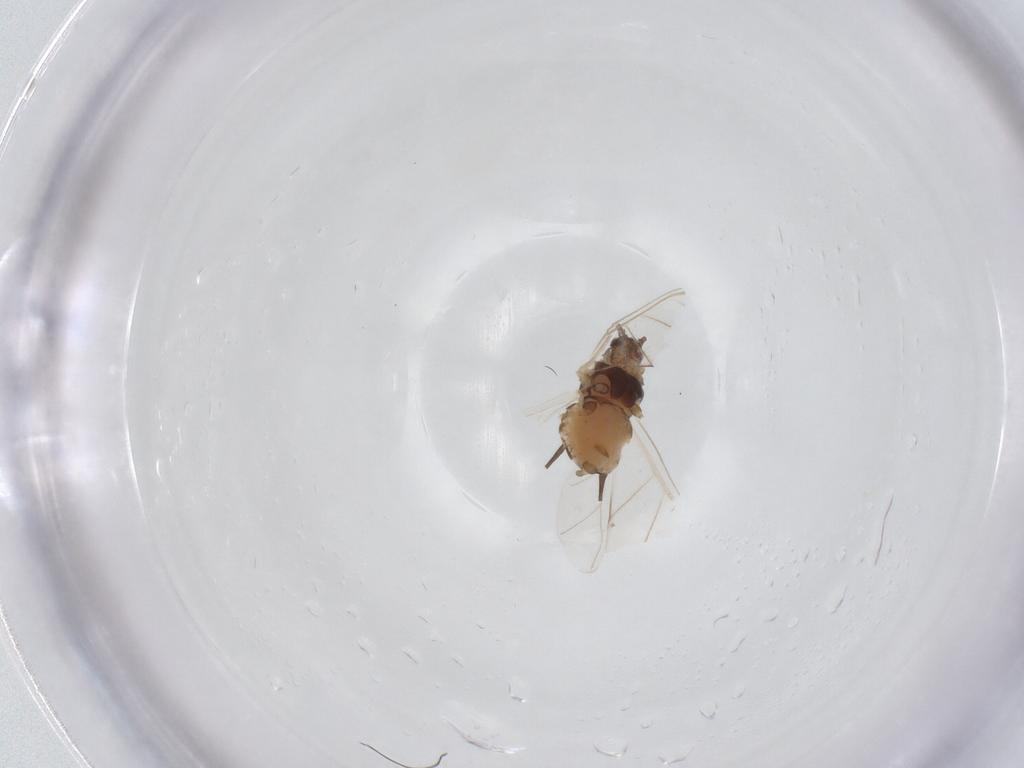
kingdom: Animalia
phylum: Arthropoda
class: Insecta
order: Hemiptera
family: Aphididae
